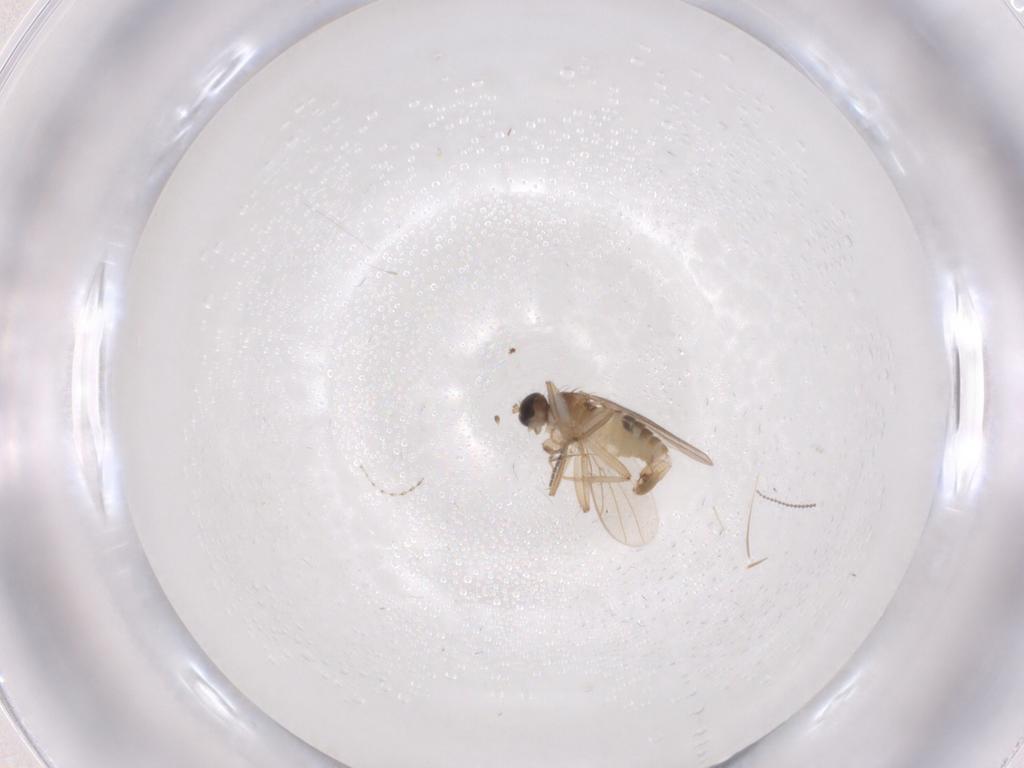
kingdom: Animalia
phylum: Arthropoda
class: Insecta
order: Diptera
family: Hybotidae
